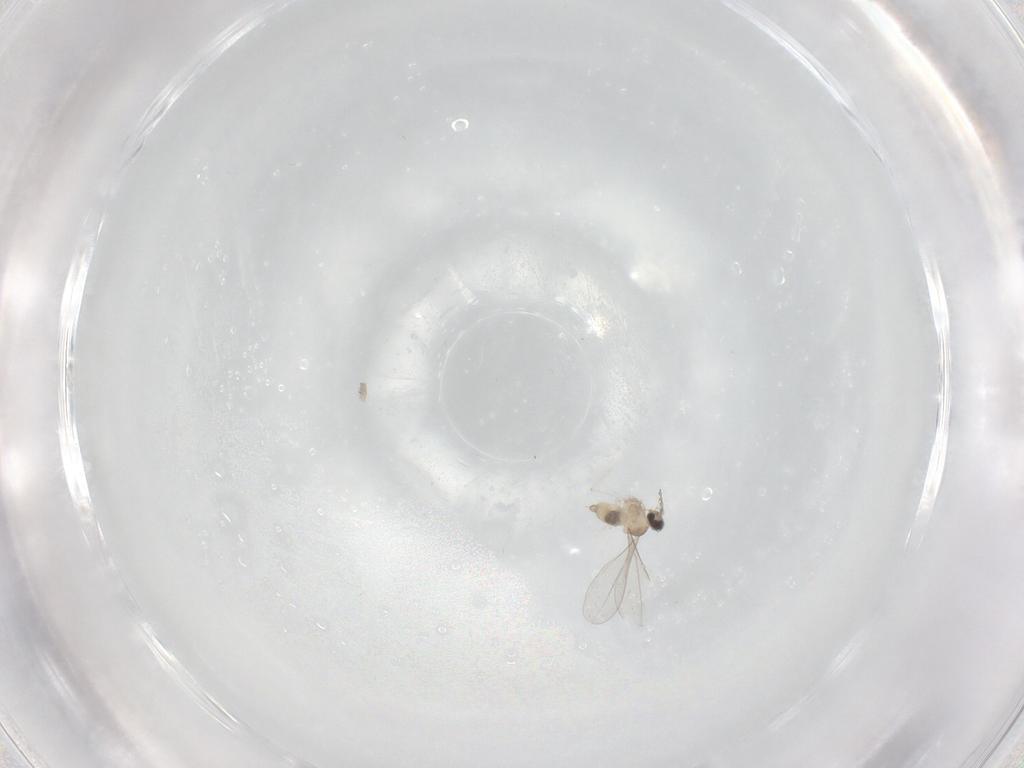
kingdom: Animalia
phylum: Arthropoda
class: Insecta
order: Diptera
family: Cecidomyiidae
